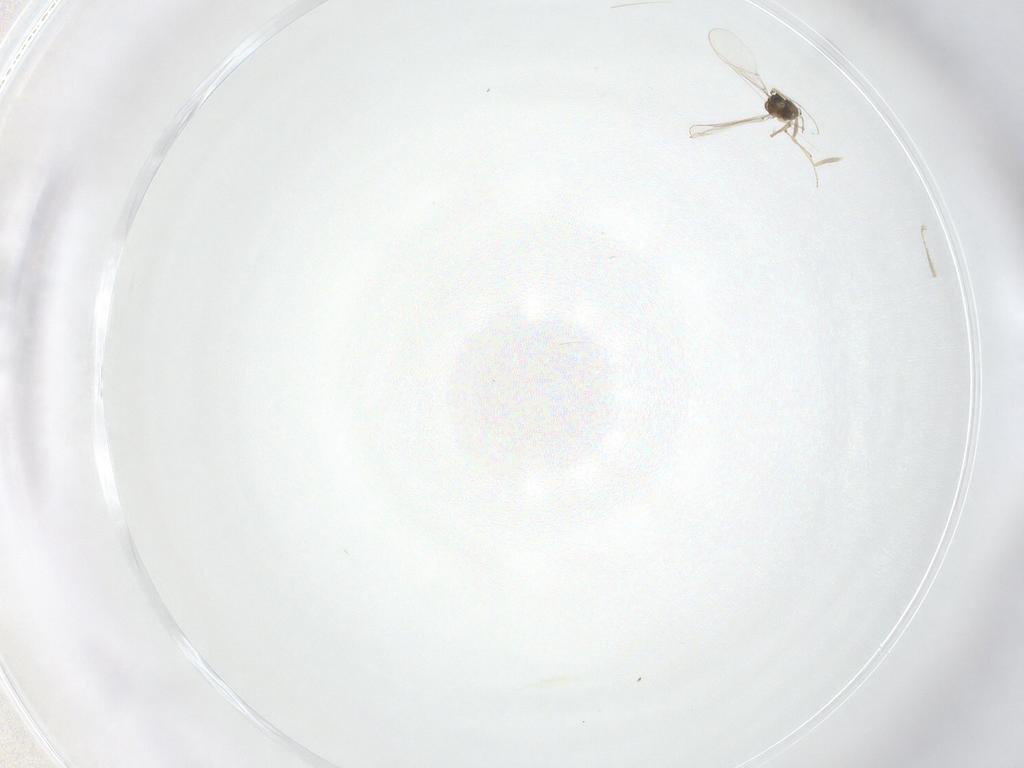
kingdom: Animalia
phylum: Arthropoda
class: Insecta
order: Diptera
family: Chironomidae
